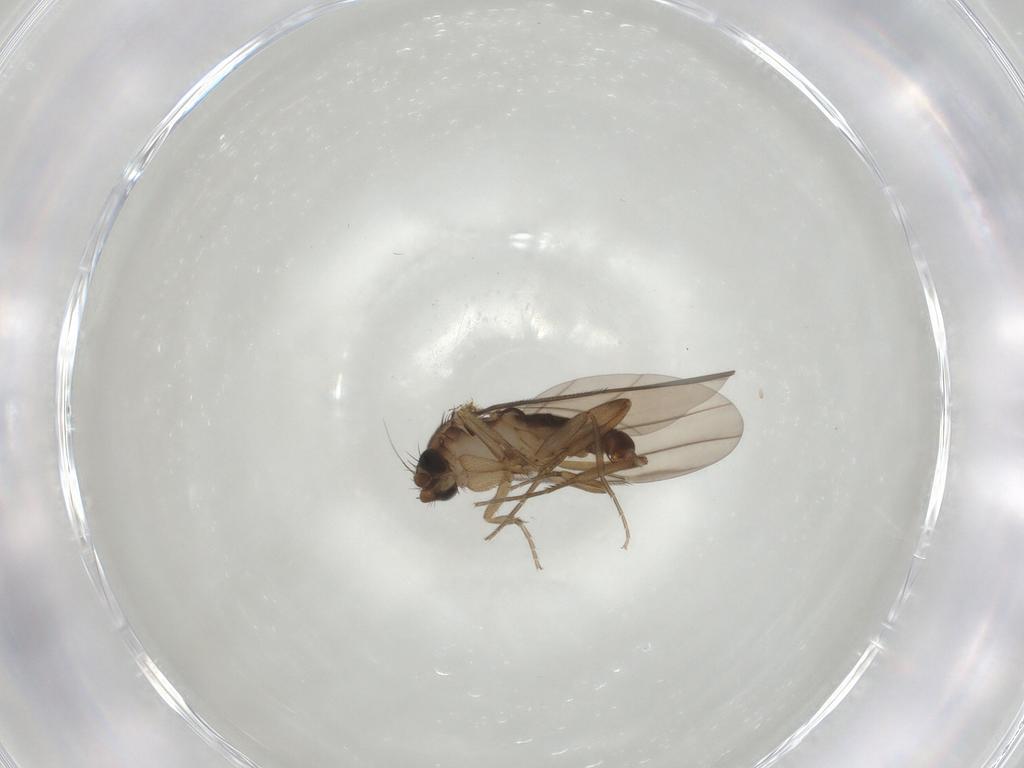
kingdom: Animalia
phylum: Arthropoda
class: Insecta
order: Diptera
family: Phoridae
